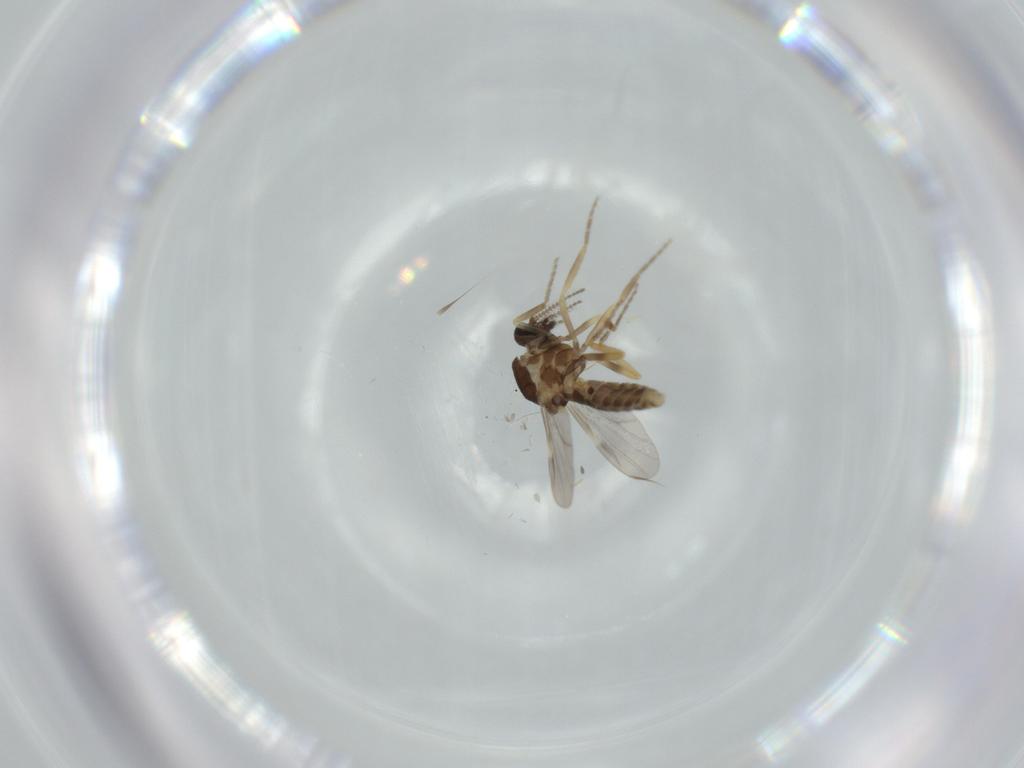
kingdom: Animalia
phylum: Arthropoda
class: Insecta
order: Diptera
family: Ceratopogonidae
